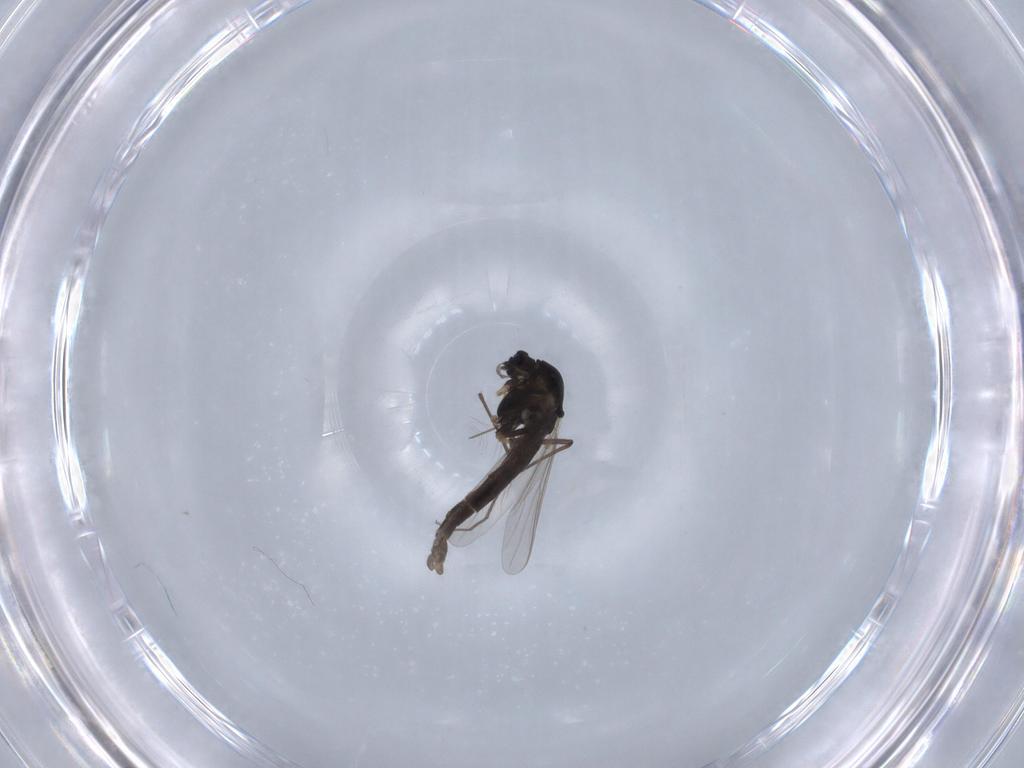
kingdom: Animalia
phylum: Arthropoda
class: Insecta
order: Diptera
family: Chironomidae
